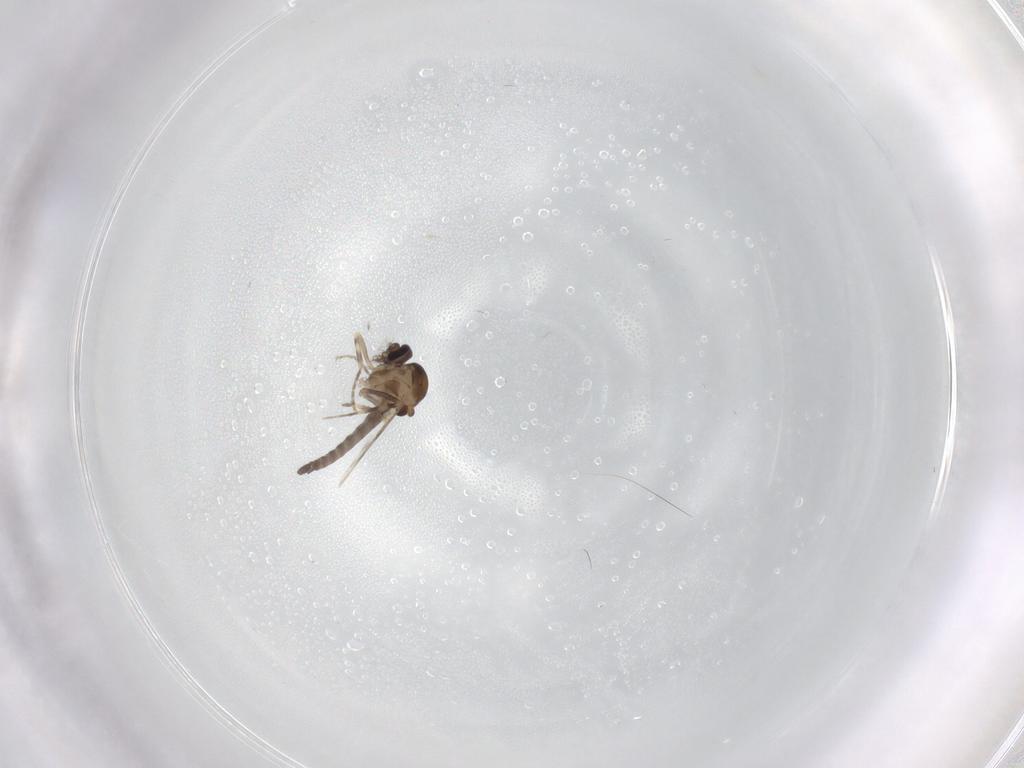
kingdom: Animalia
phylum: Arthropoda
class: Insecta
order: Diptera
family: Ceratopogonidae
